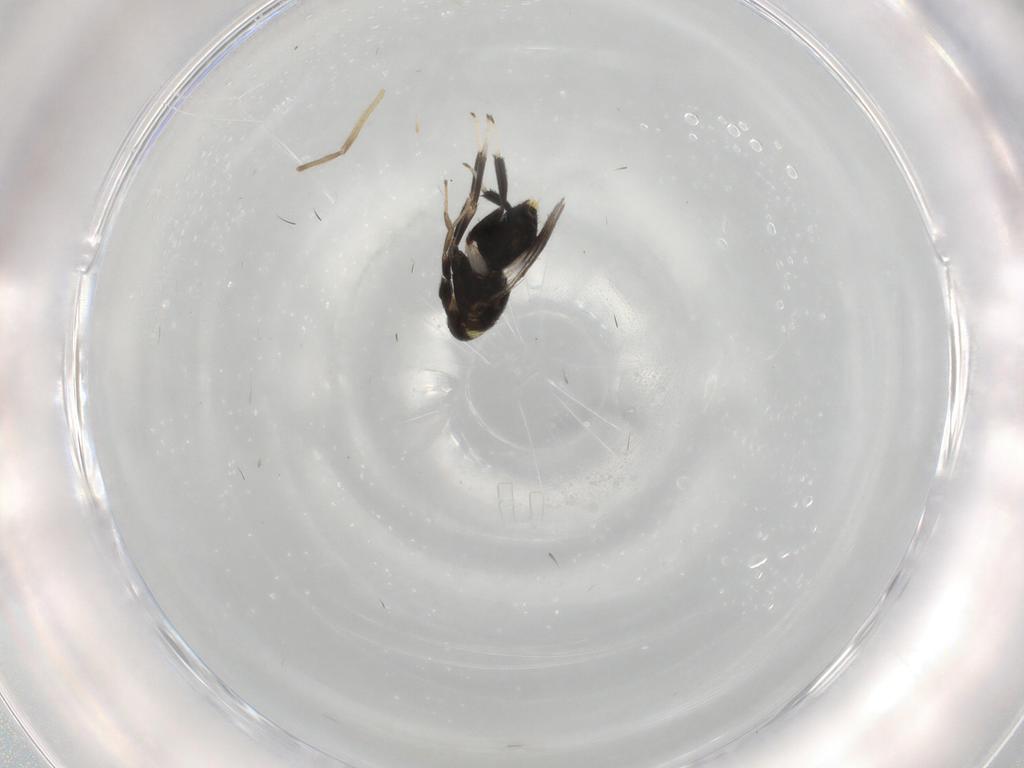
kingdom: Animalia
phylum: Arthropoda
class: Insecta
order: Hymenoptera
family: Aphelinidae
